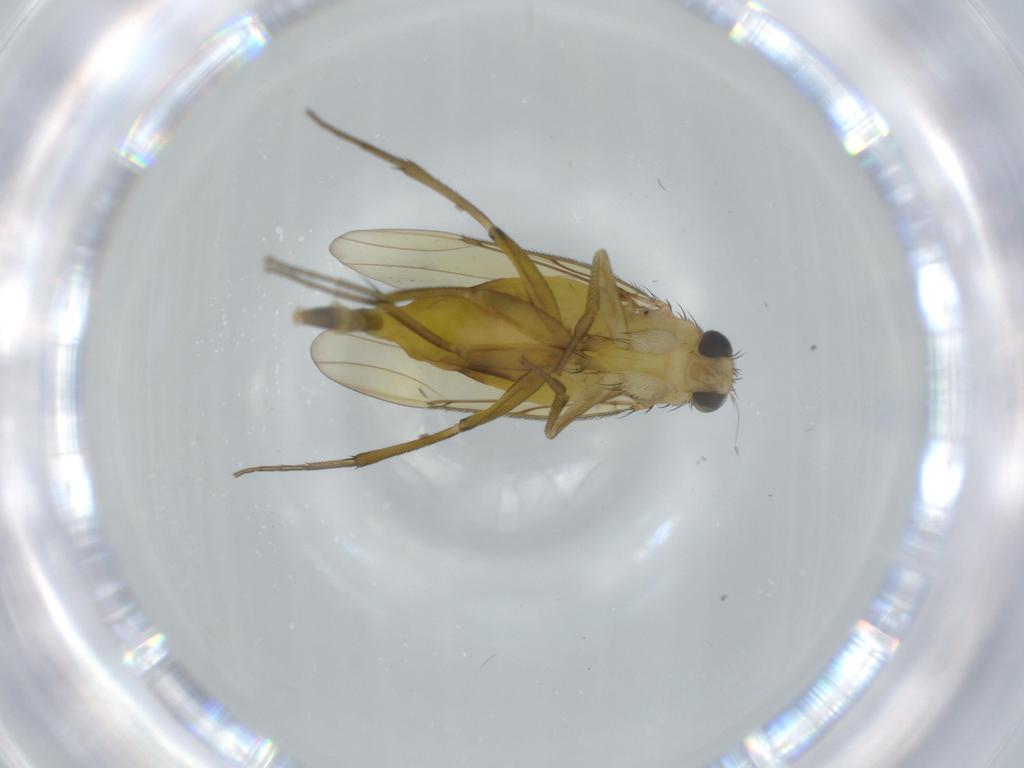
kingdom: Animalia
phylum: Arthropoda
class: Insecta
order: Diptera
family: Phoridae
